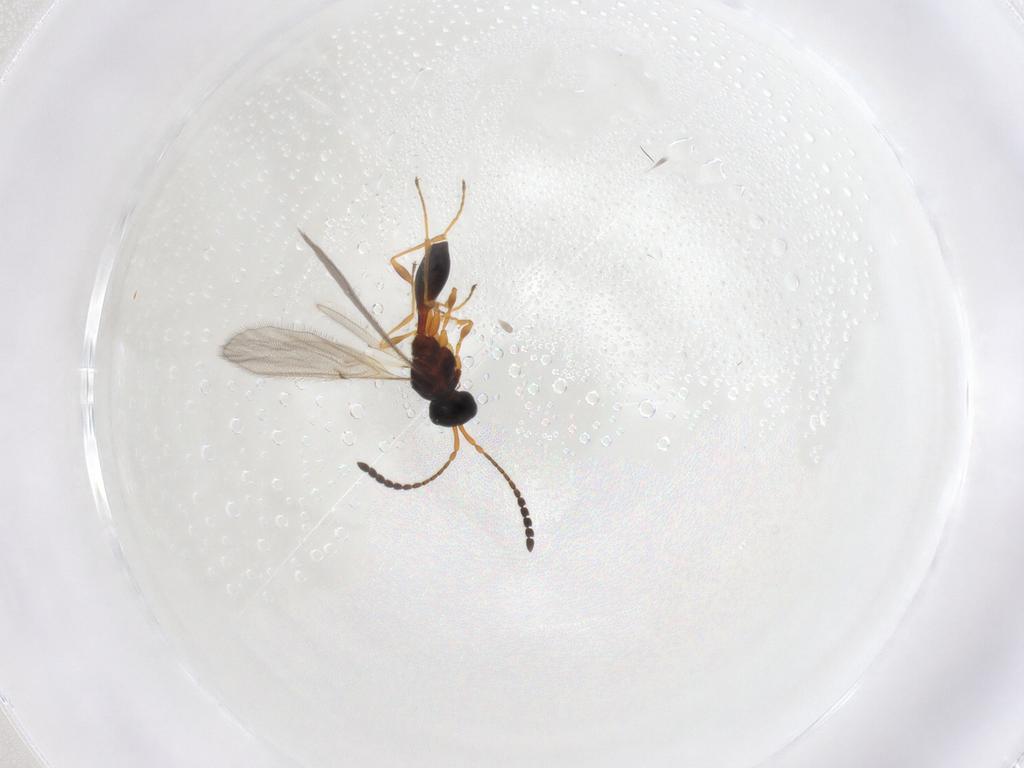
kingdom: Animalia
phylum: Arthropoda
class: Insecta
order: Hymenoptera
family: Diapriidae
